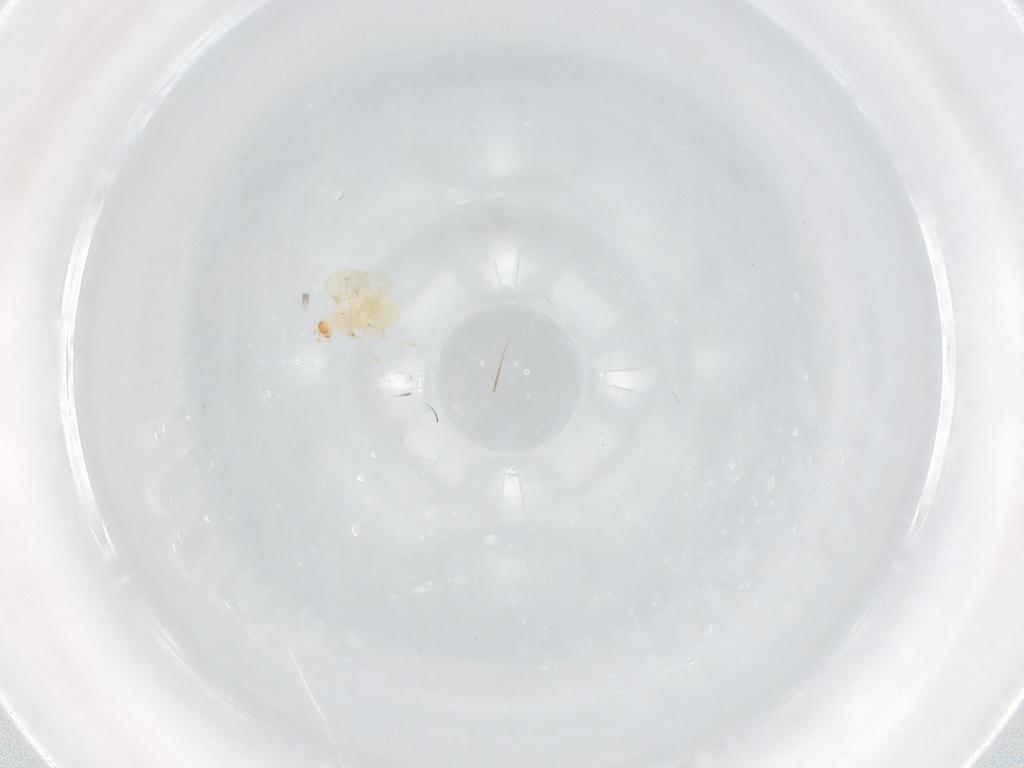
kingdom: Animalia
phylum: Arthropoda
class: Insecta
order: Diptera
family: Cecidomyiidae
